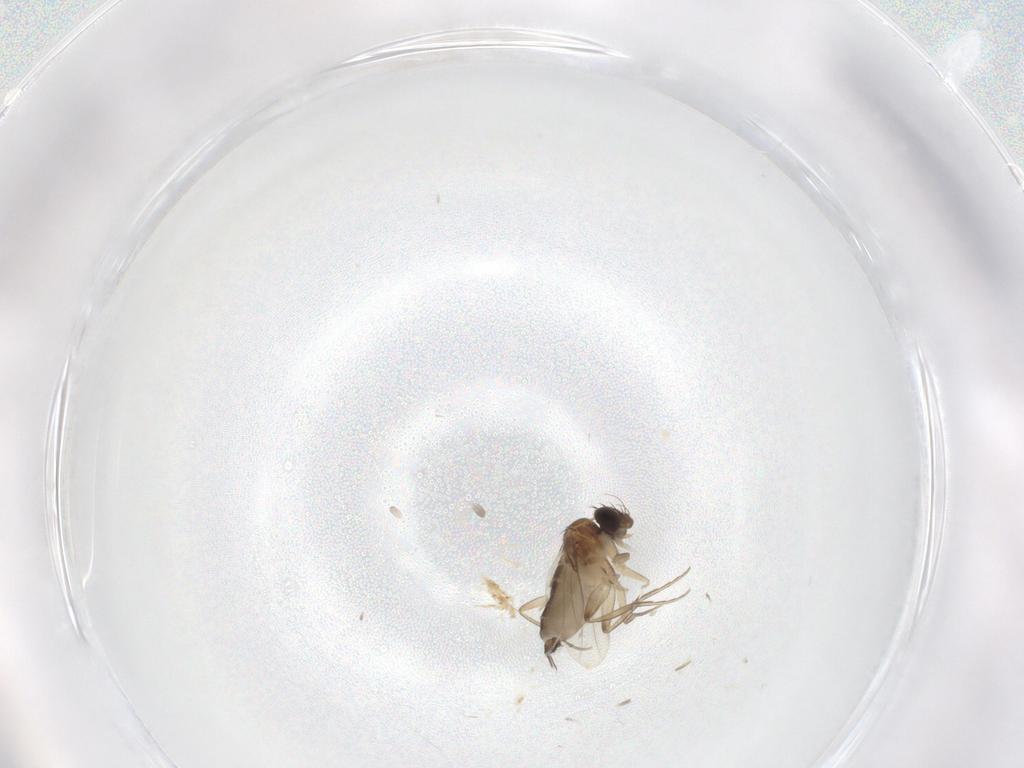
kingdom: Animalia
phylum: Arthropoda
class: Insecta
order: Diptera
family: Phoridae
